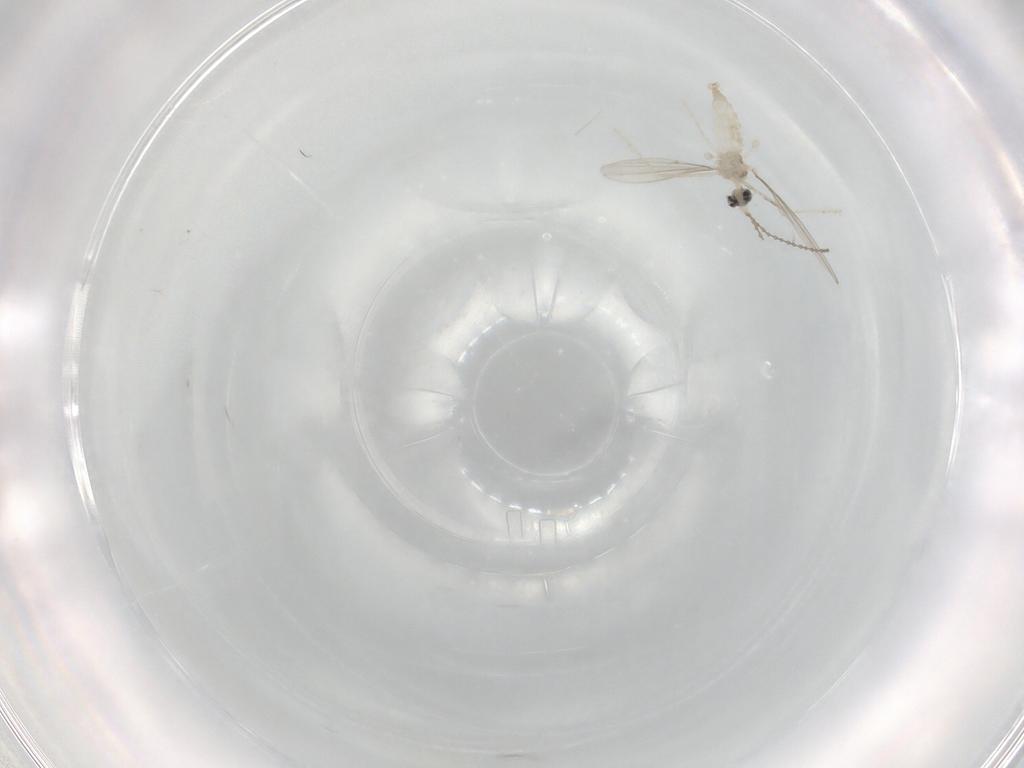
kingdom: Animalia
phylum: Arthropoda
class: Insecta
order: Diptera
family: Cecidomyiidae
